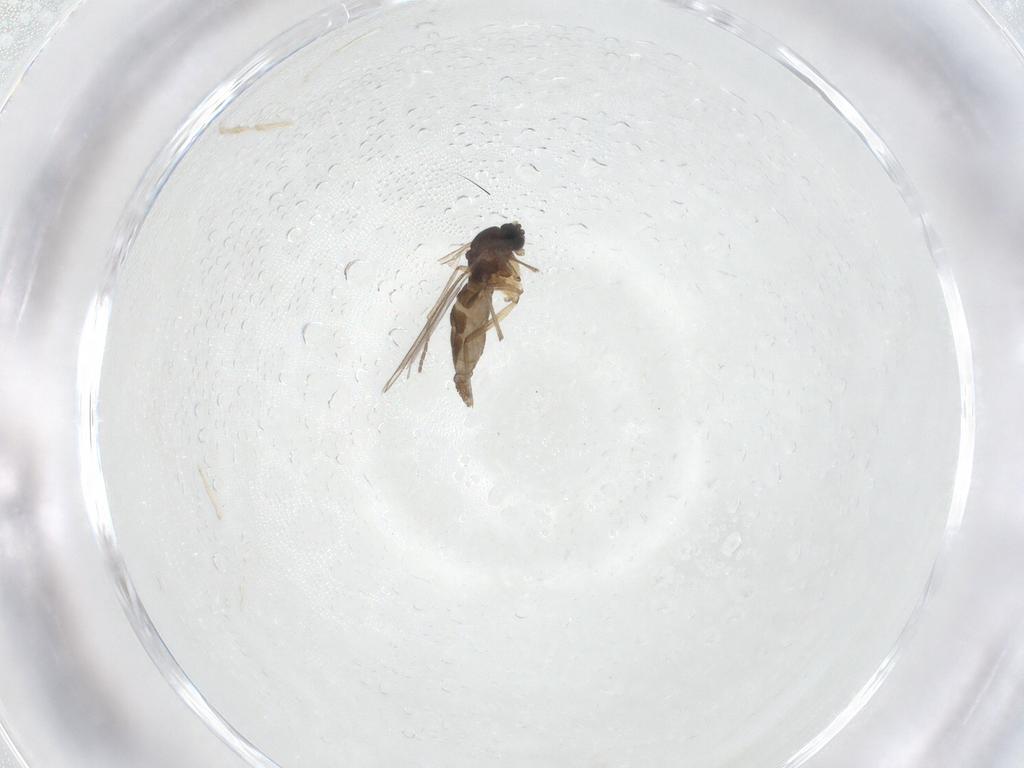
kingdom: Animalia
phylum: Arthropoda
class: Insecta
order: Diptera
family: Sciaridae
